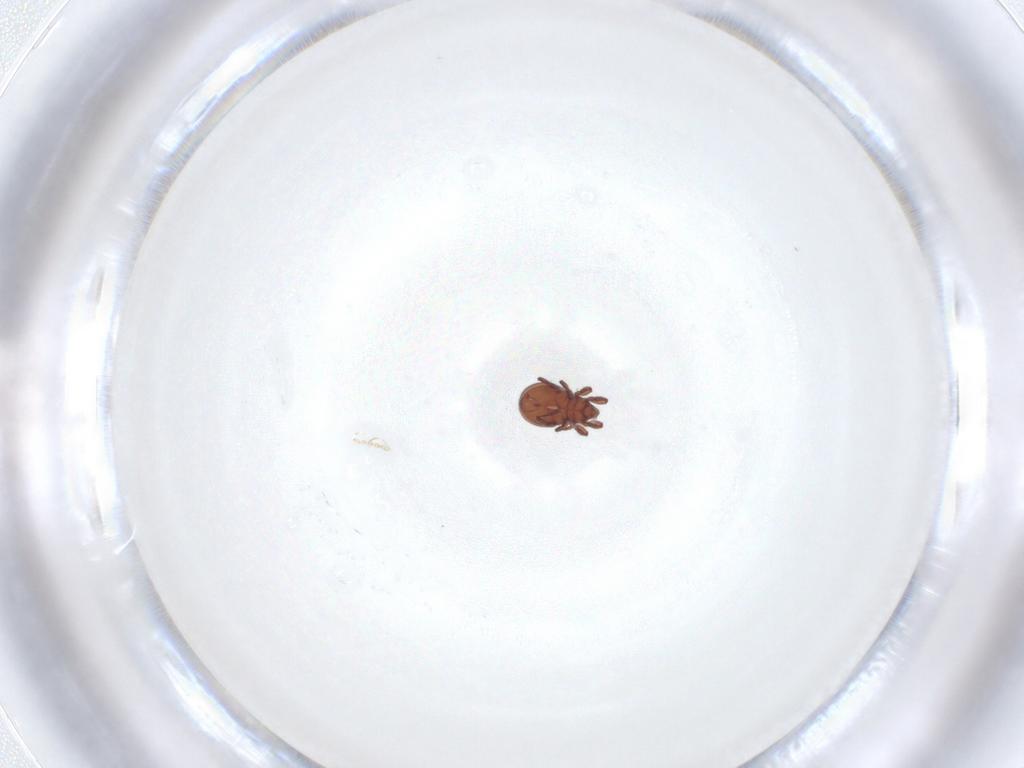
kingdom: Animalia
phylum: Arthropoda
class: Arachnida
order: Sarcoptiformes
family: Eremaeidae
